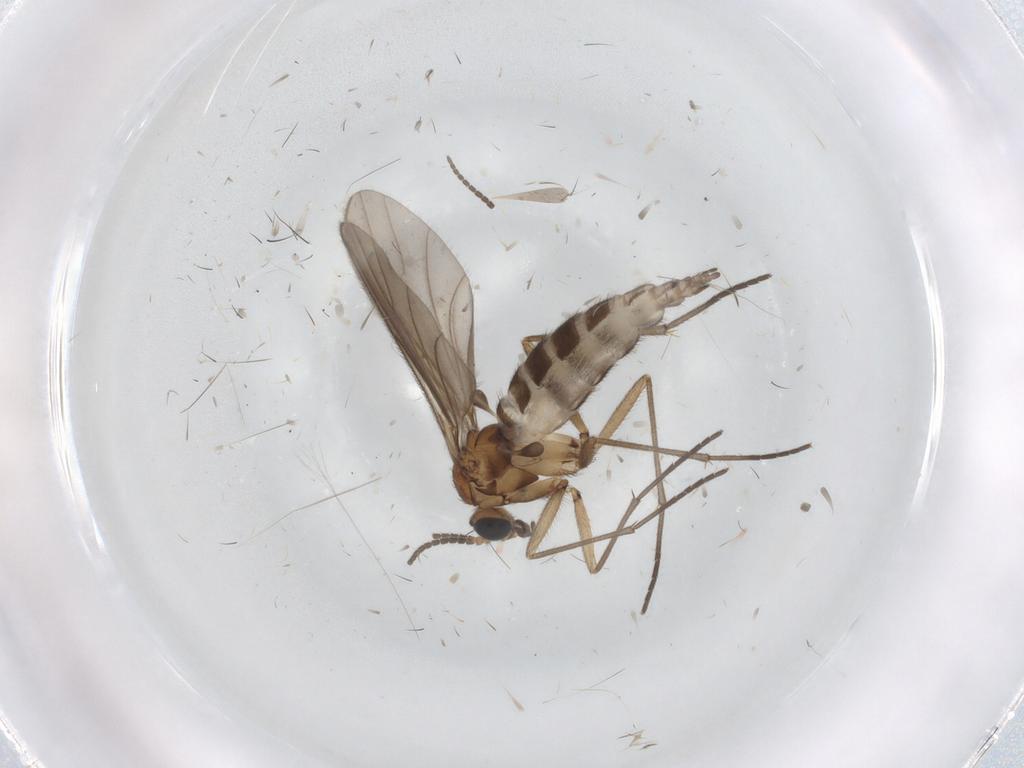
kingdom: Animalia
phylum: Arthropoda
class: Insecta
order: Diptera
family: Sciaridae
